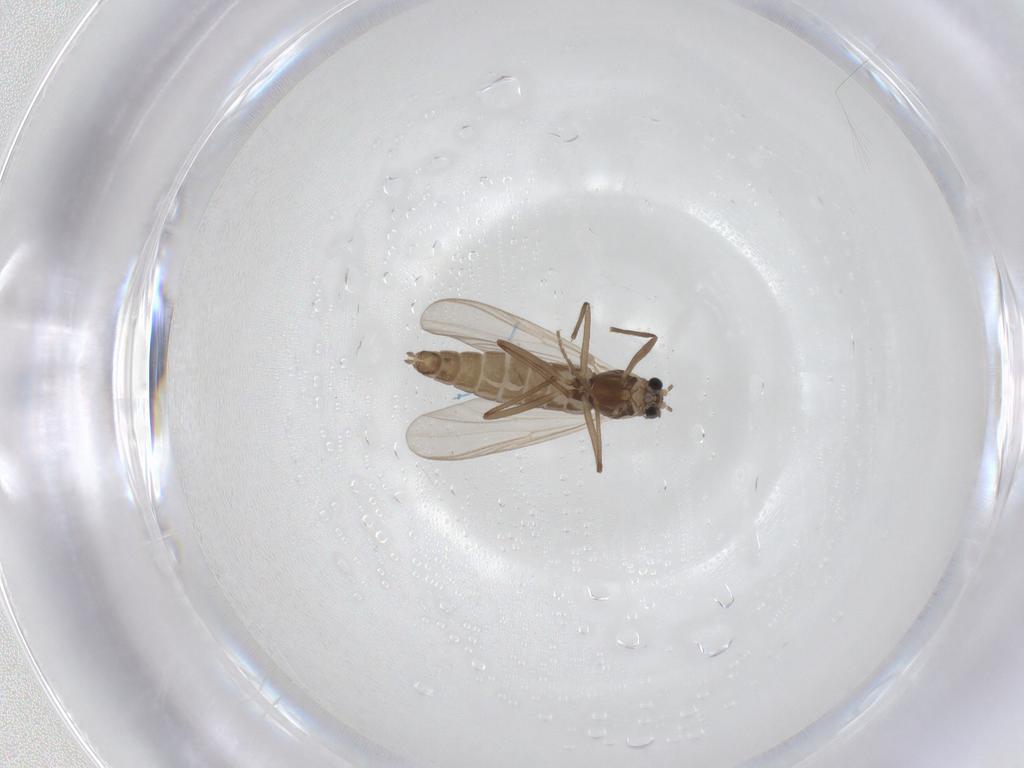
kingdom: Animalia
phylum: Arthropoda
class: Insecta
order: Diptera
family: Chironomidae
